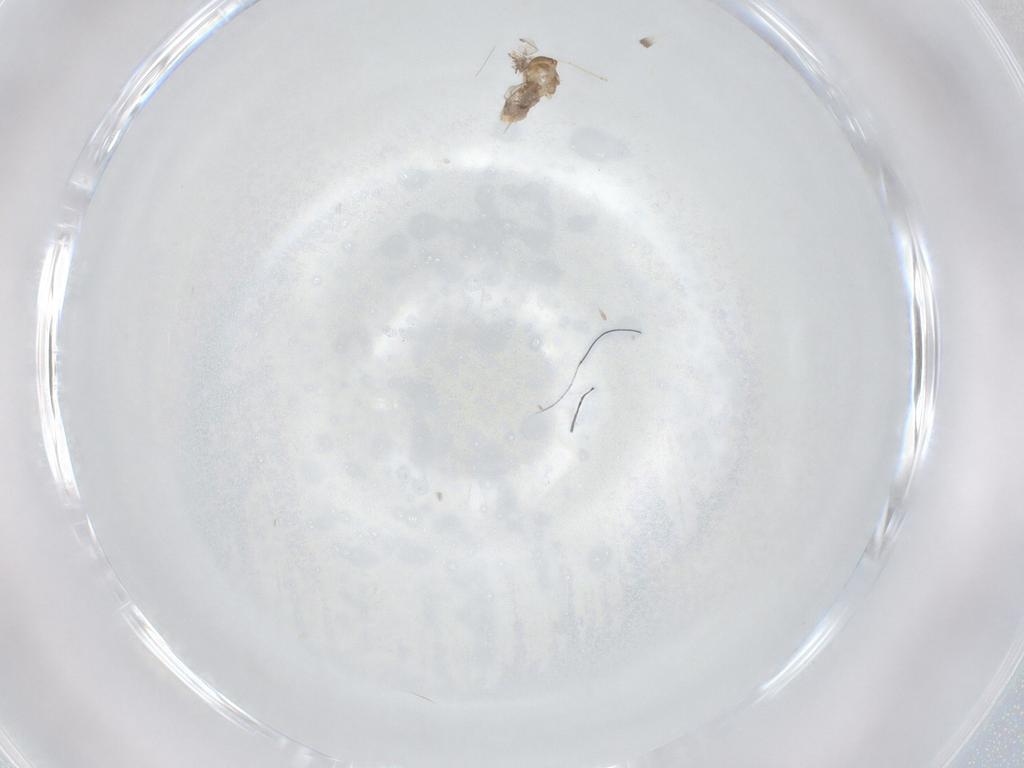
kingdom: Animalia
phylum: Arthropoda
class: Insecta
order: Diptera
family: Cecidomyiidae
